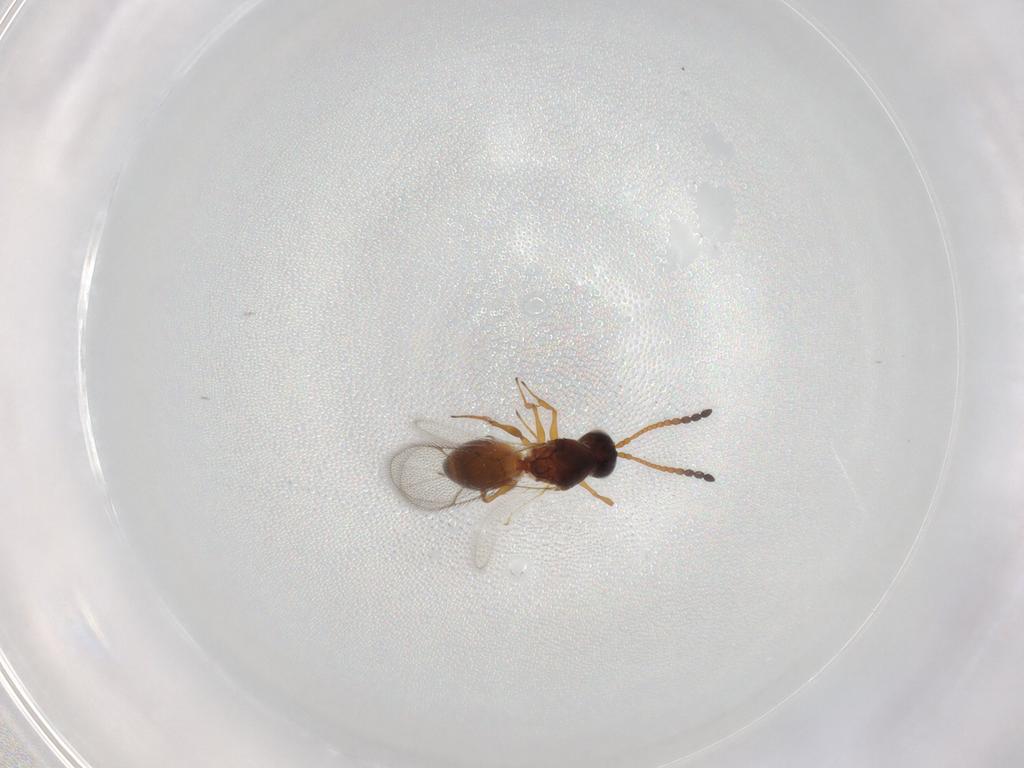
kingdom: Animalia
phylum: Arthropoda
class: Insecta
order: Hymenoptera
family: Figitidae
